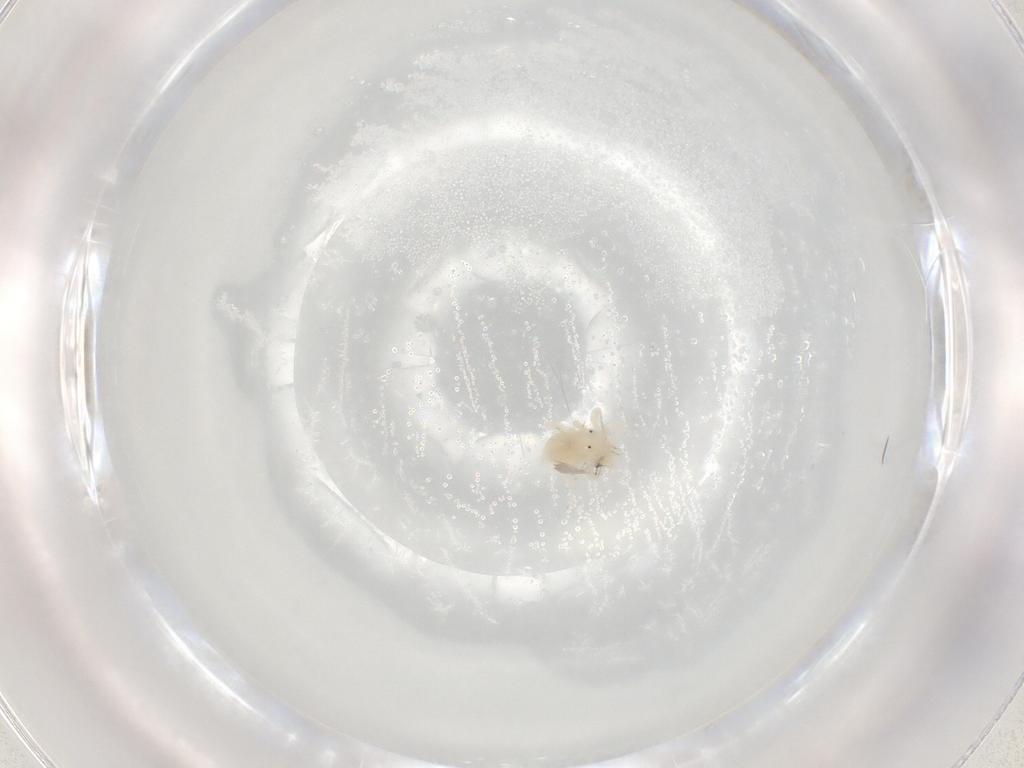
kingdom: Animalia
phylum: Arthropoda
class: Arachnida
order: Trombidiformes
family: Anystidae
